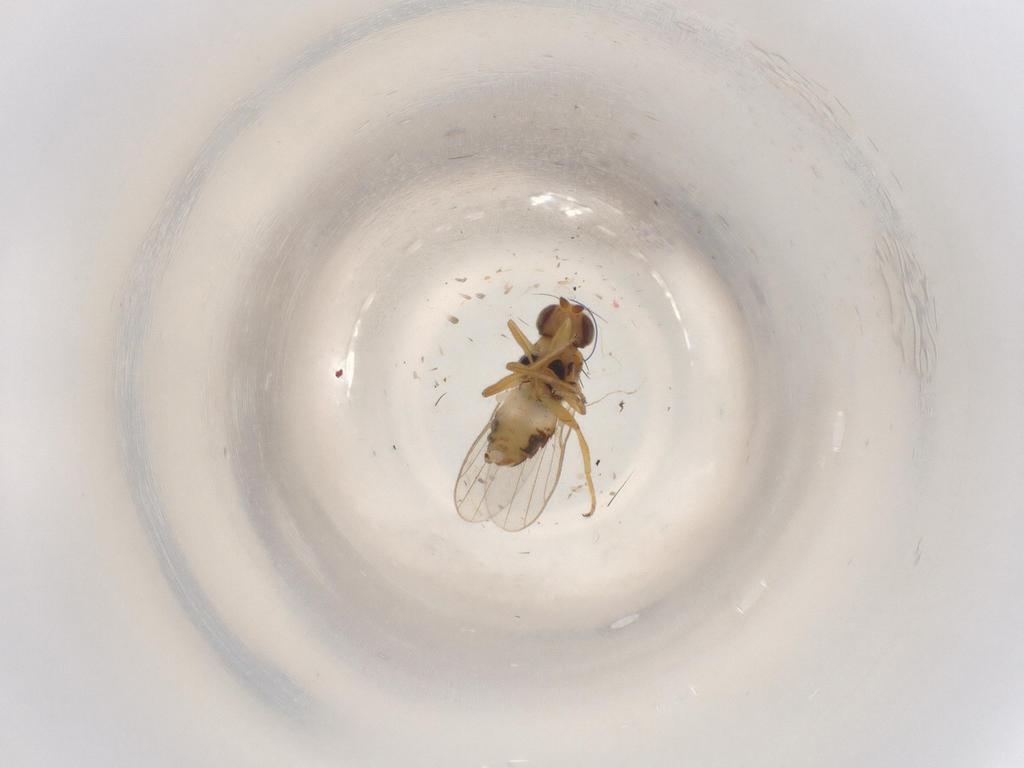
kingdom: Animalia
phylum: Arthropoda
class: Insecta
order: Diptera
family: Chloropidae
